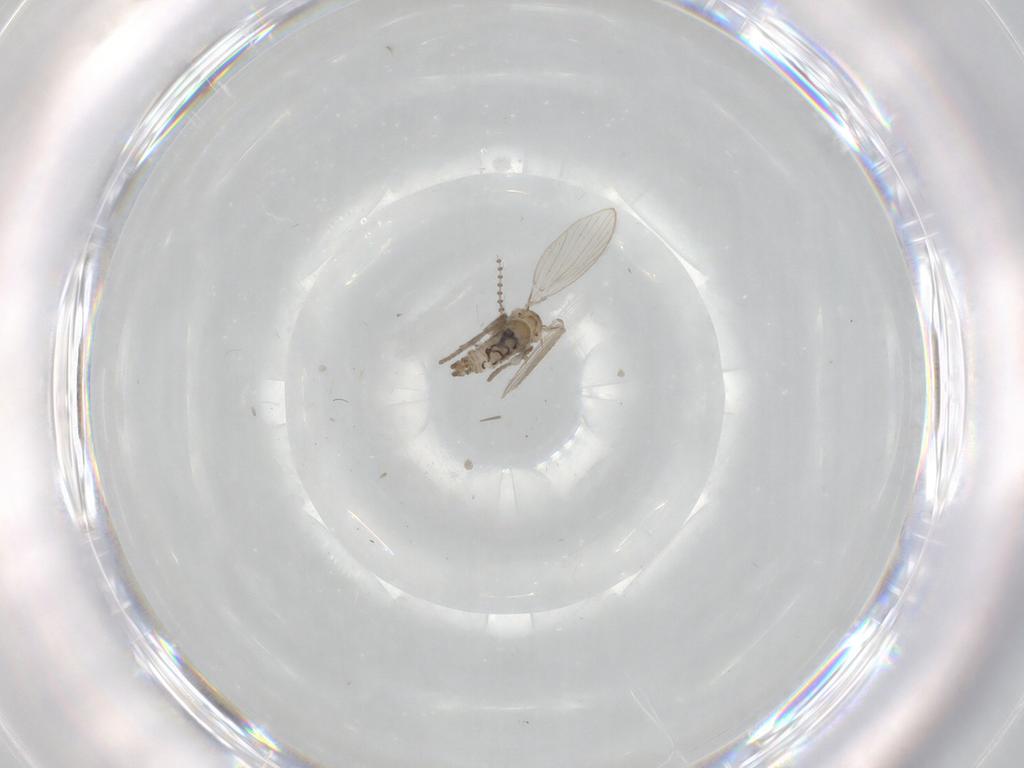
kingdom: Animalia
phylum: Arthropoda
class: Insecta
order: Diptera
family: Psychodidae
